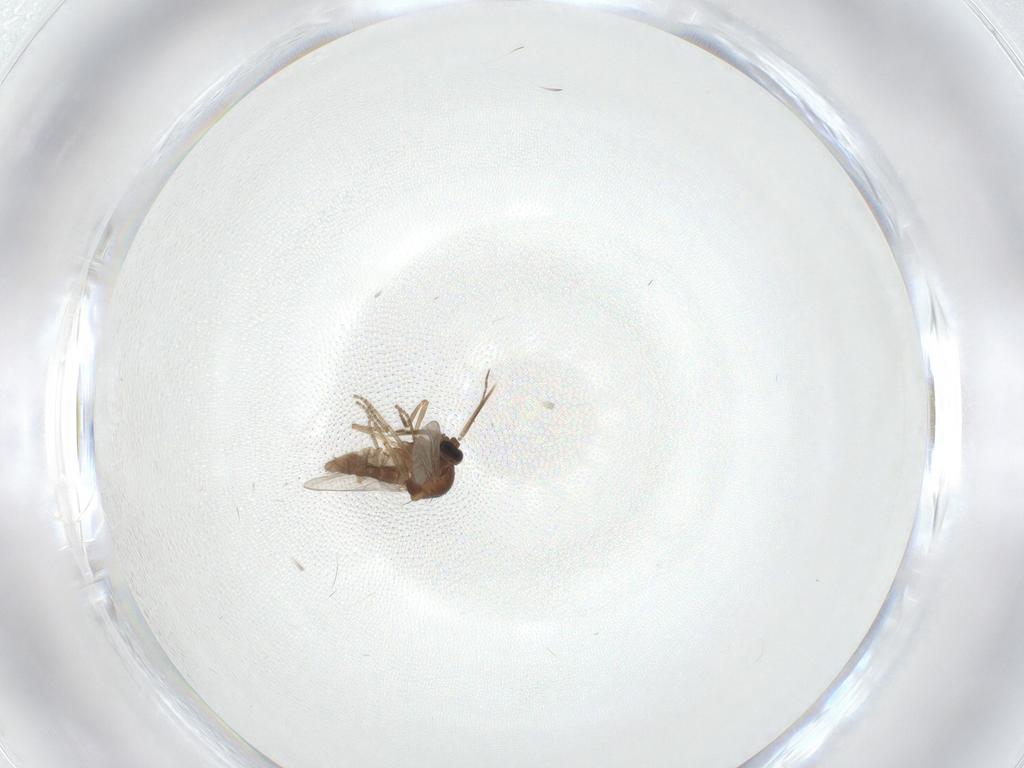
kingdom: Animalia
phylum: Arthropoda
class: Insecta
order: Diptera
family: Ceratopogonidae
